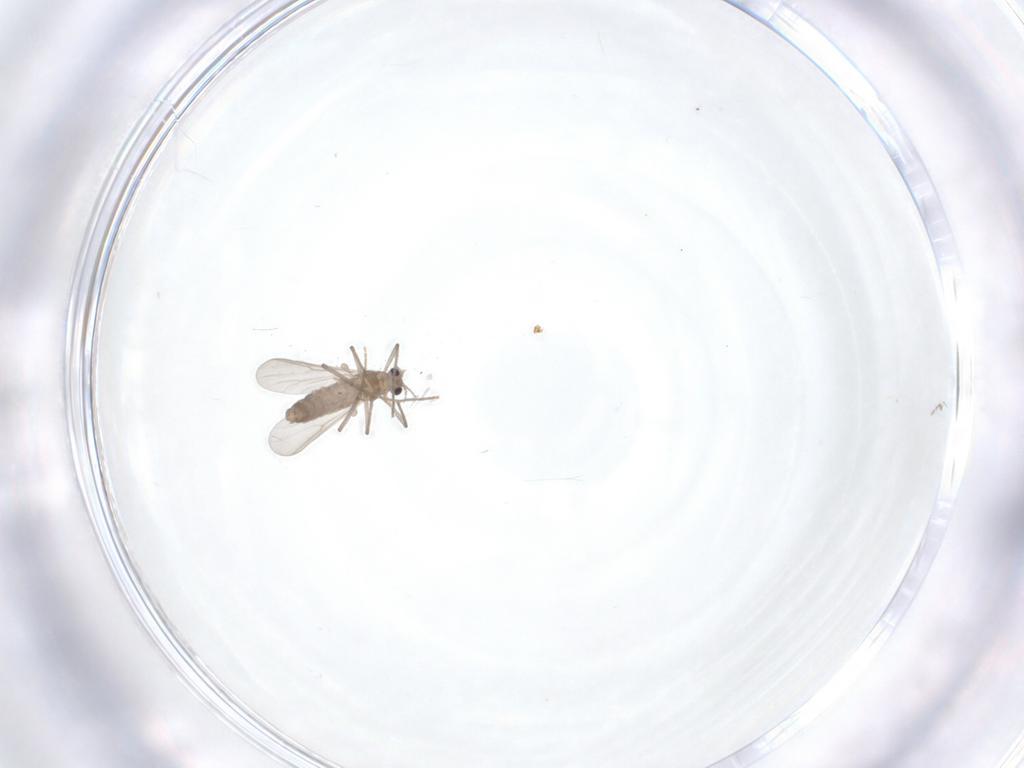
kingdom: Animalia
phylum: Arthropoda
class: Insecta
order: Diptera
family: Chironomidae
